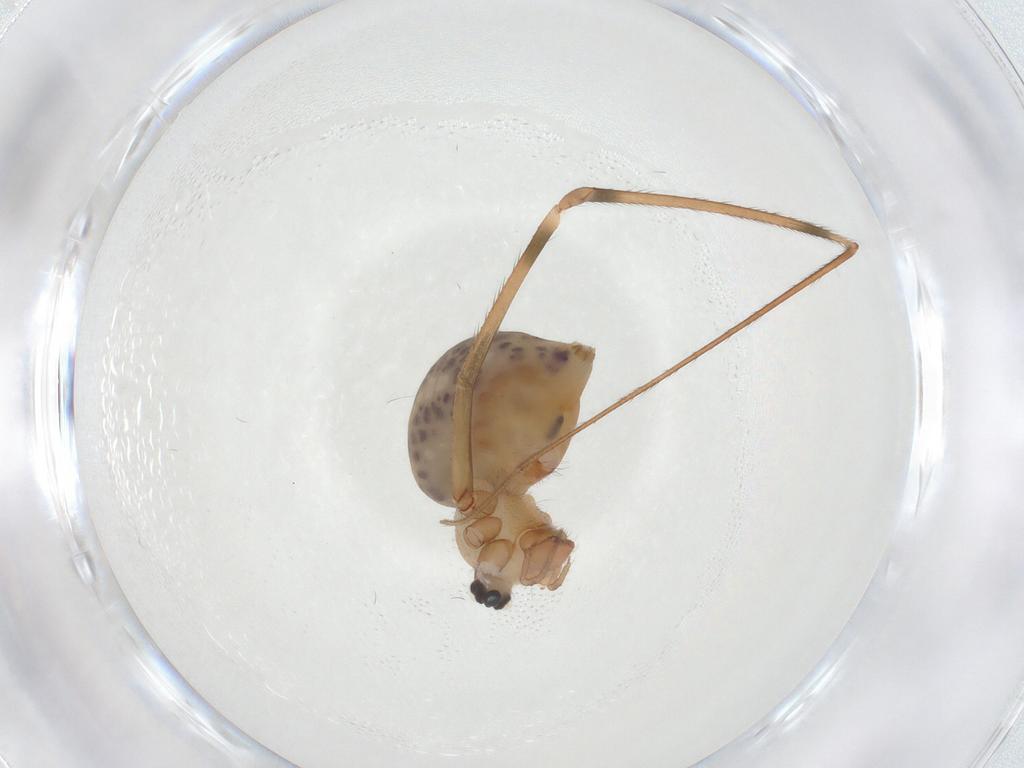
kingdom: Animalia
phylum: Arthropoda
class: Arachnida
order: Araneae
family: Pholcidae
